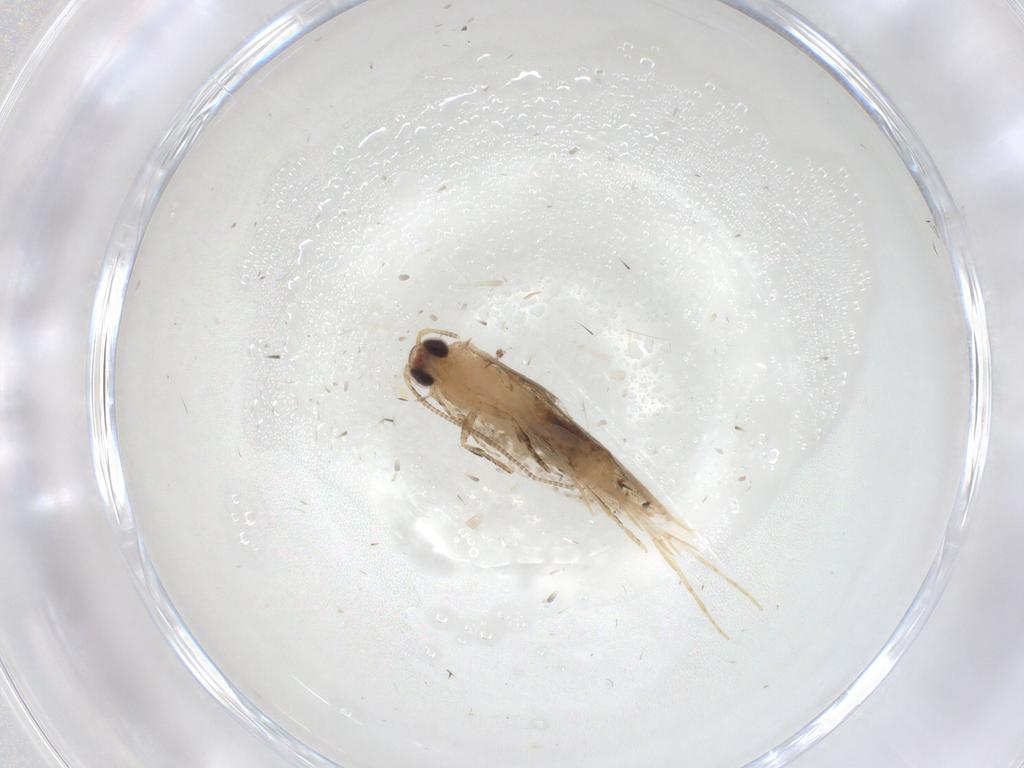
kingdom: Animalia
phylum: Arthropoda
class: Insecta
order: Lepidoptera
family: Tineidae
